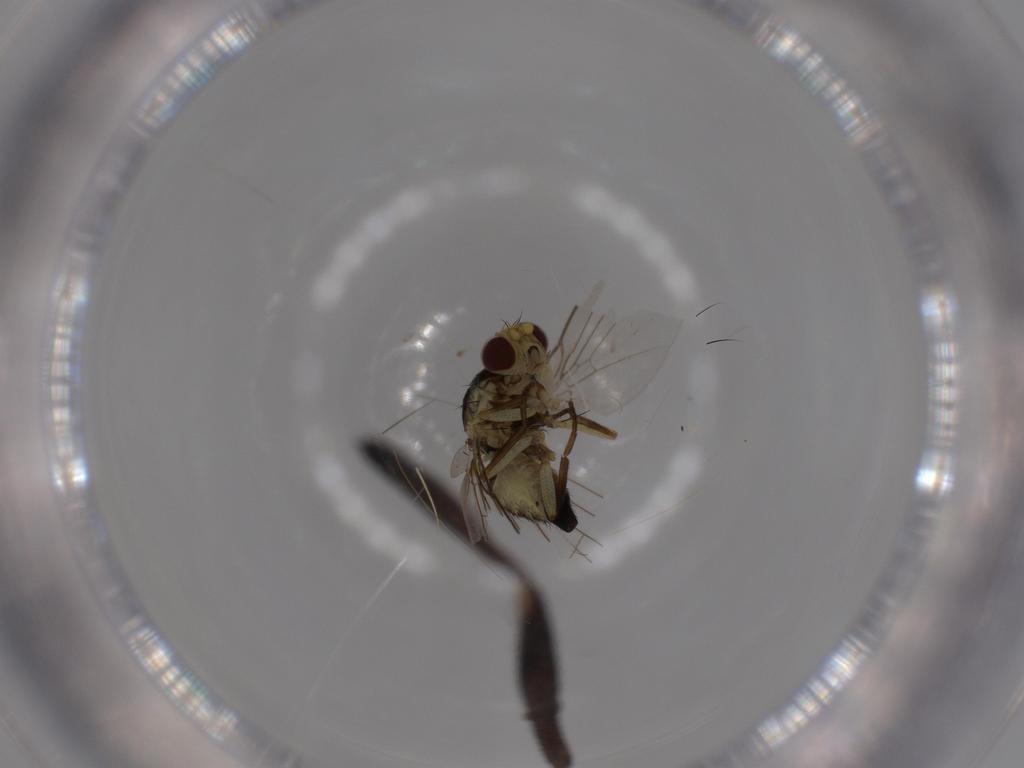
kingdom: Animalia
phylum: Arthropoda
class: Insecta
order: Diptera
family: Agromyzidae
